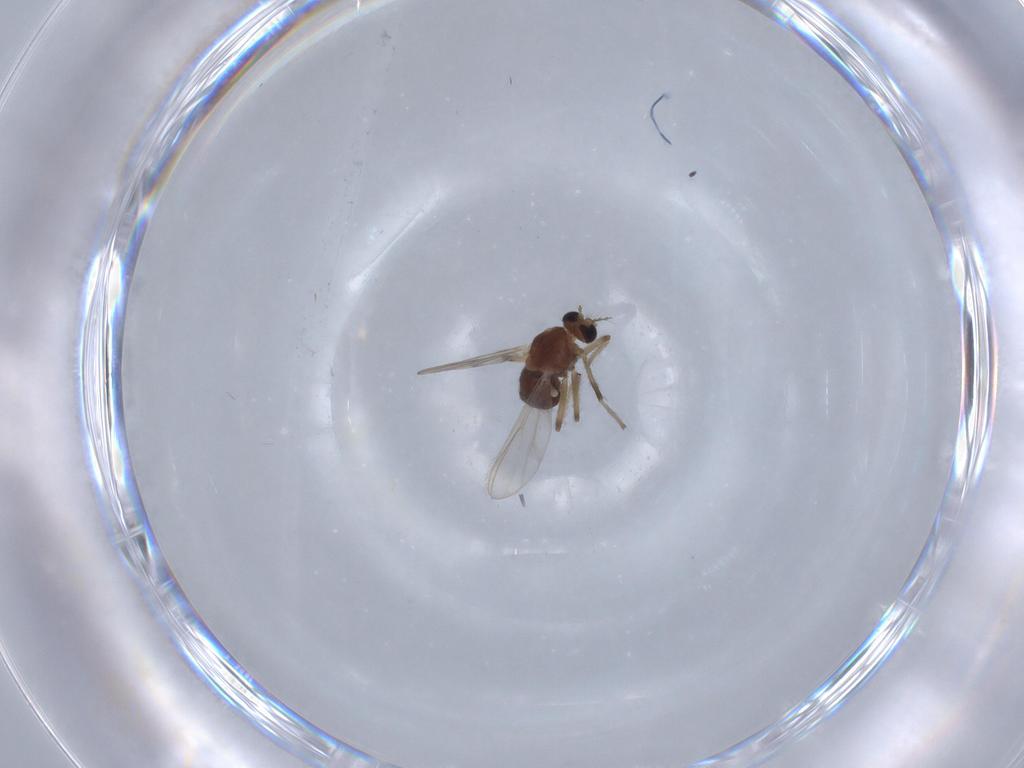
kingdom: Animalia
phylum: Arthropoda
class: Insecta
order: Diptera
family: Chironomidae
